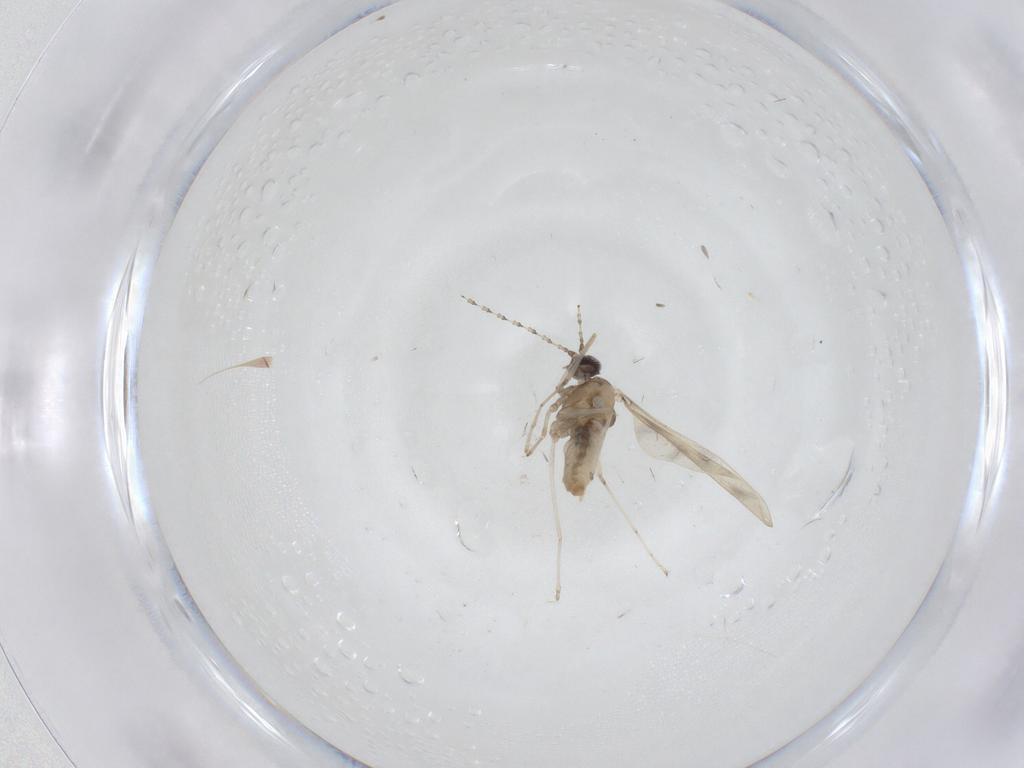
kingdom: Animalia
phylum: Arthropoda
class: Insecta
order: Diptera
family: Cecidomyiidae
